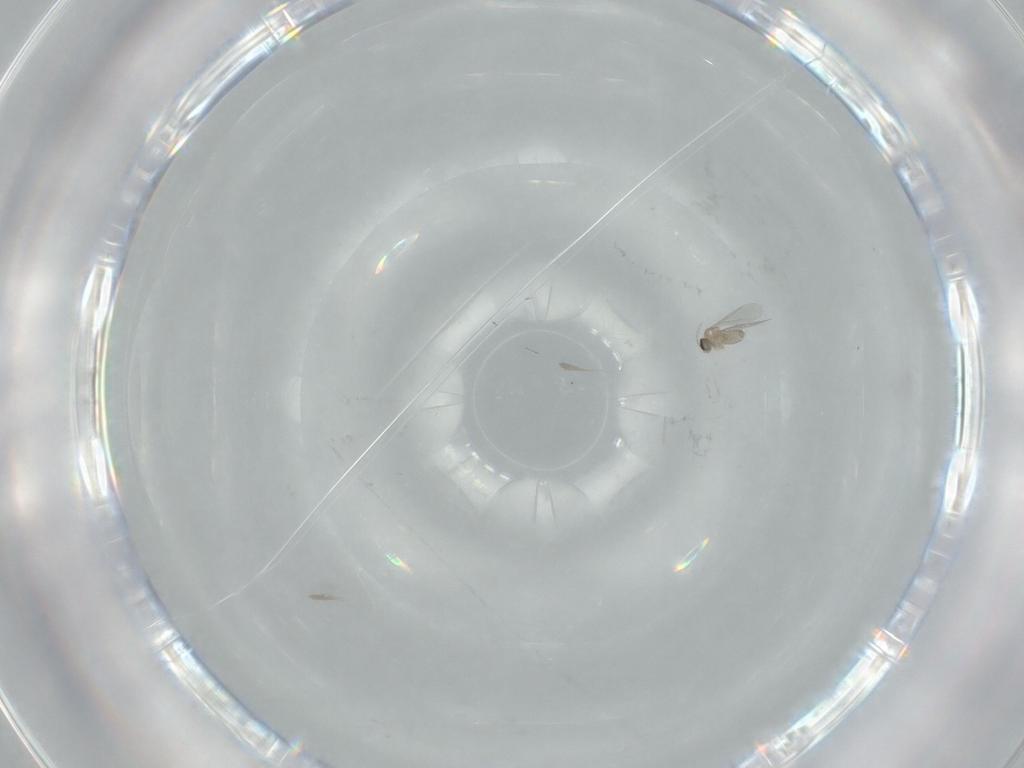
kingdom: Animalia
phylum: Arthropoda
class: Insecta
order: Diptera
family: Cecidomyiidae
